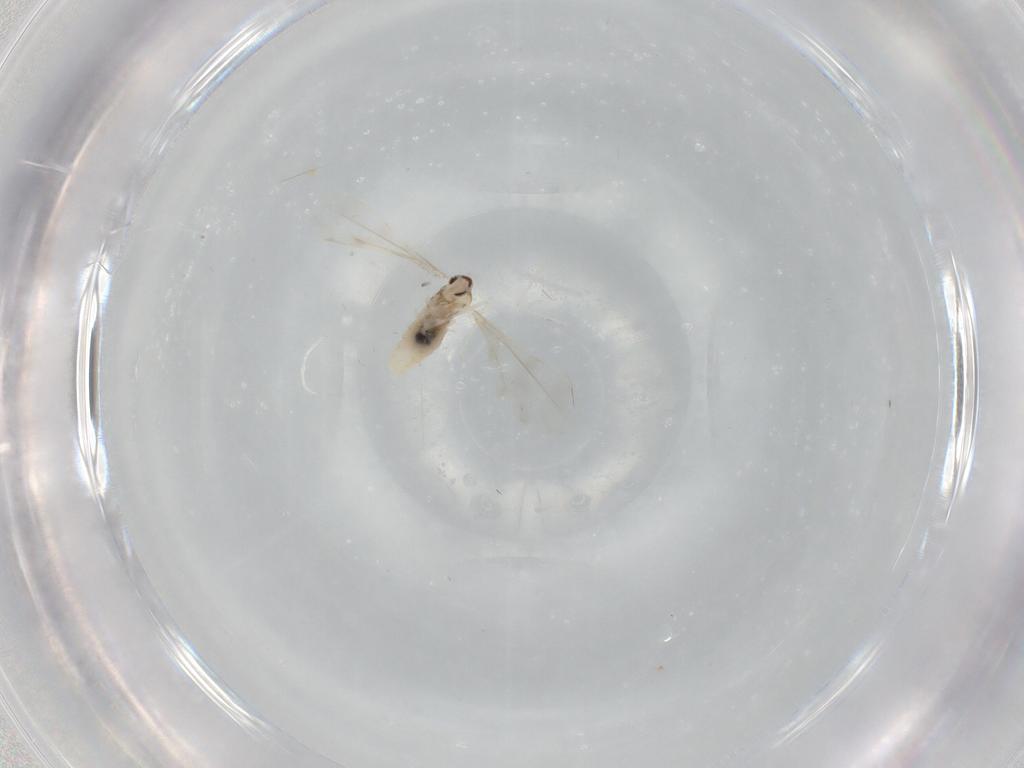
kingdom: Animalia
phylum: Arthropoda
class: Insecta
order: Diptera
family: Cecidomyiidae
